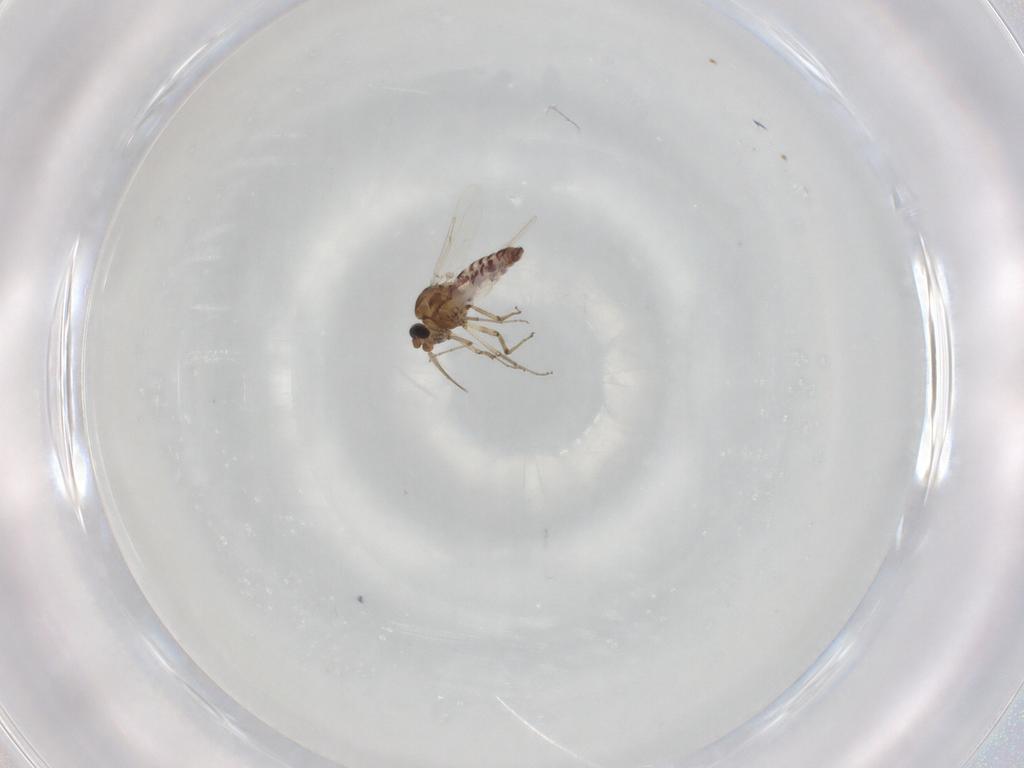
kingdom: Animalia
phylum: Arthropoda
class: Insecta
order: Diptera
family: Ceratopogonidae
